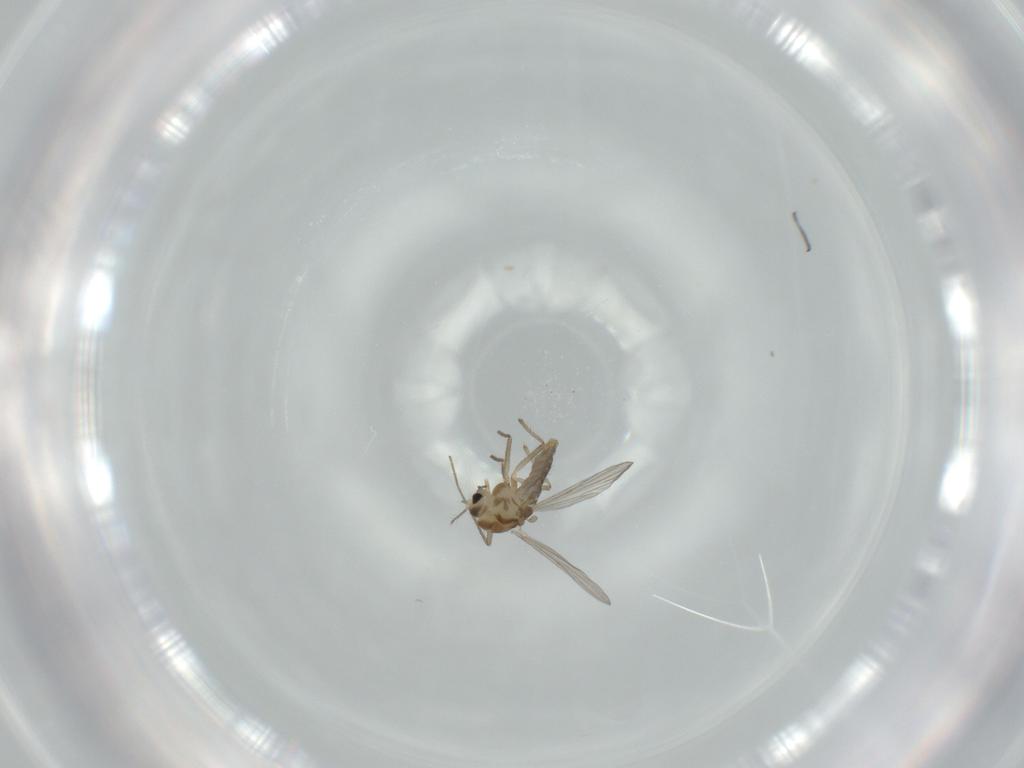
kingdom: Animalia
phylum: Arthropoda
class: Insecta
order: Diptera
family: Chironomidae
